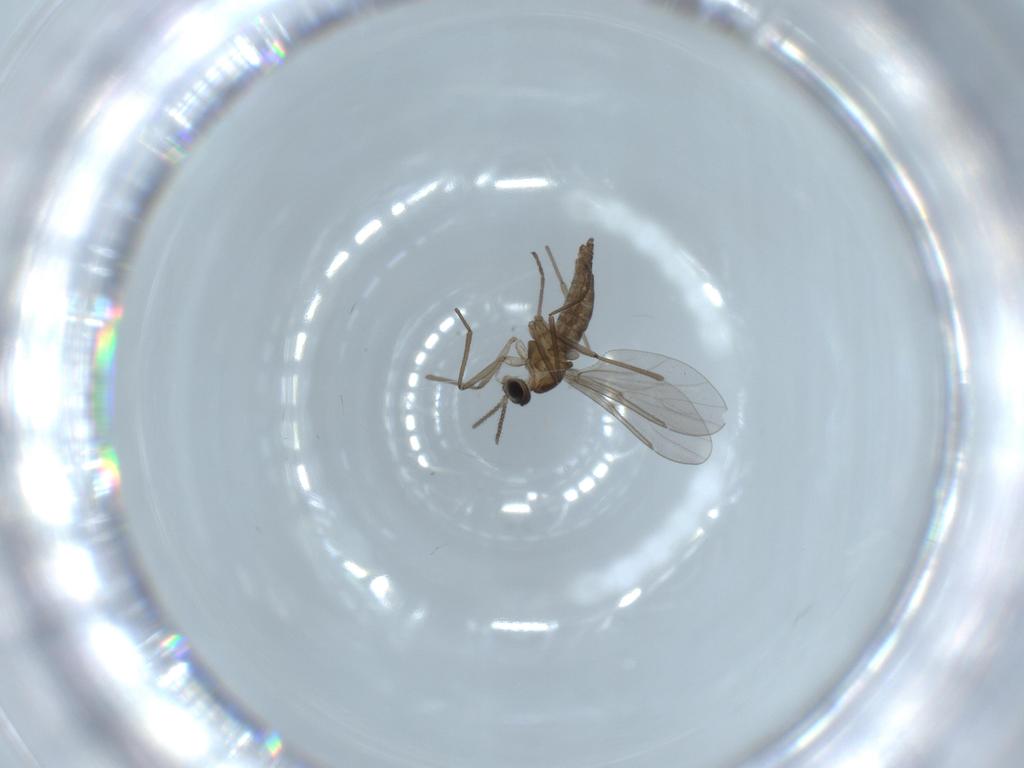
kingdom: Animalia
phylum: Arthropoda
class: Insecta
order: Diptera
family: Cecidomyiidae
